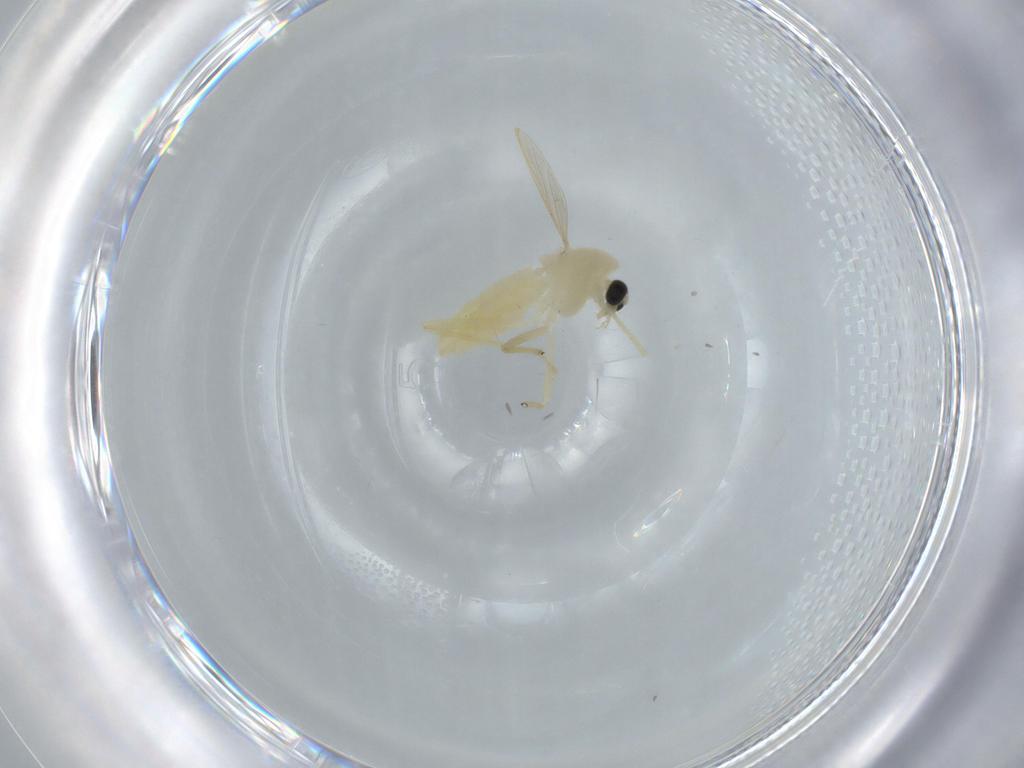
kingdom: Animalia
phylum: Arthropoda
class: Insecta
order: Diptera
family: Chironomidae
